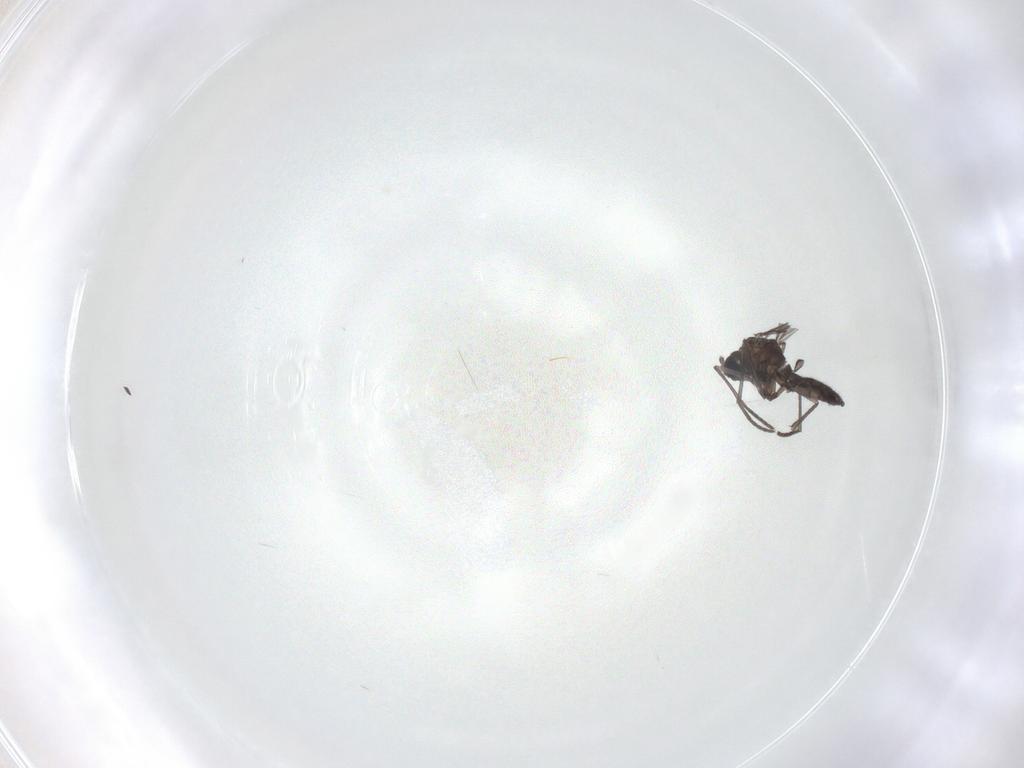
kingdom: Animalia
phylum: Arthropoda
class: Insecta
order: Diptera
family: Sciaridae
